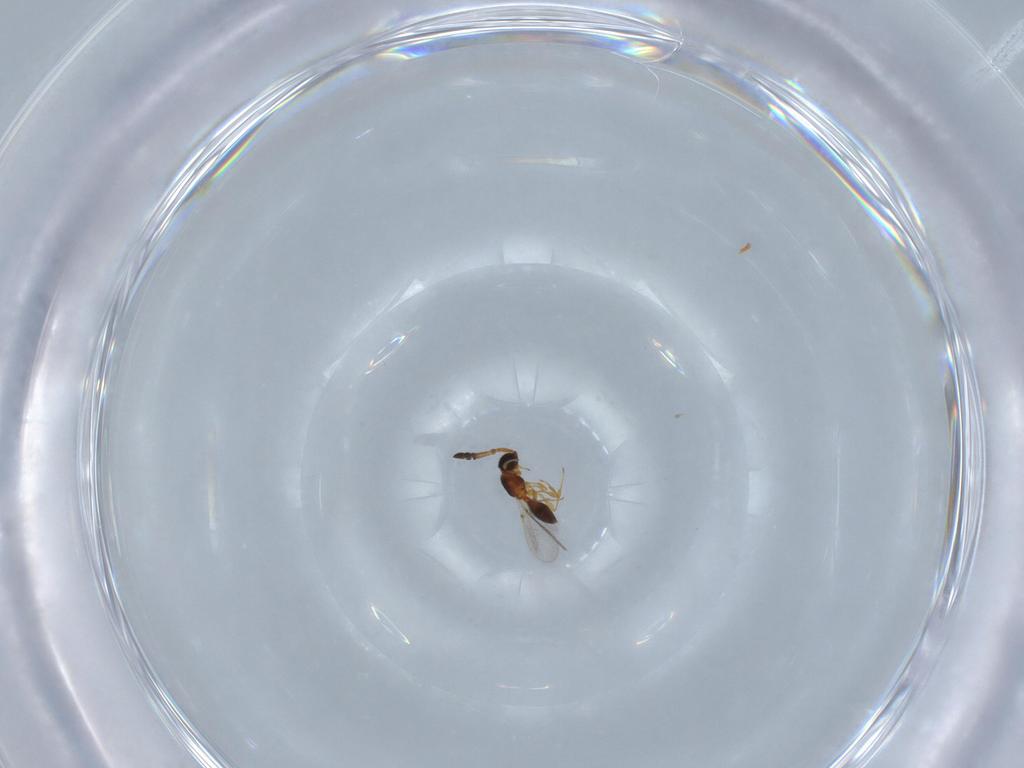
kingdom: Animalia
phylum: Arthropoda
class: Insecta
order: Hymenoptera
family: Diapriidae
